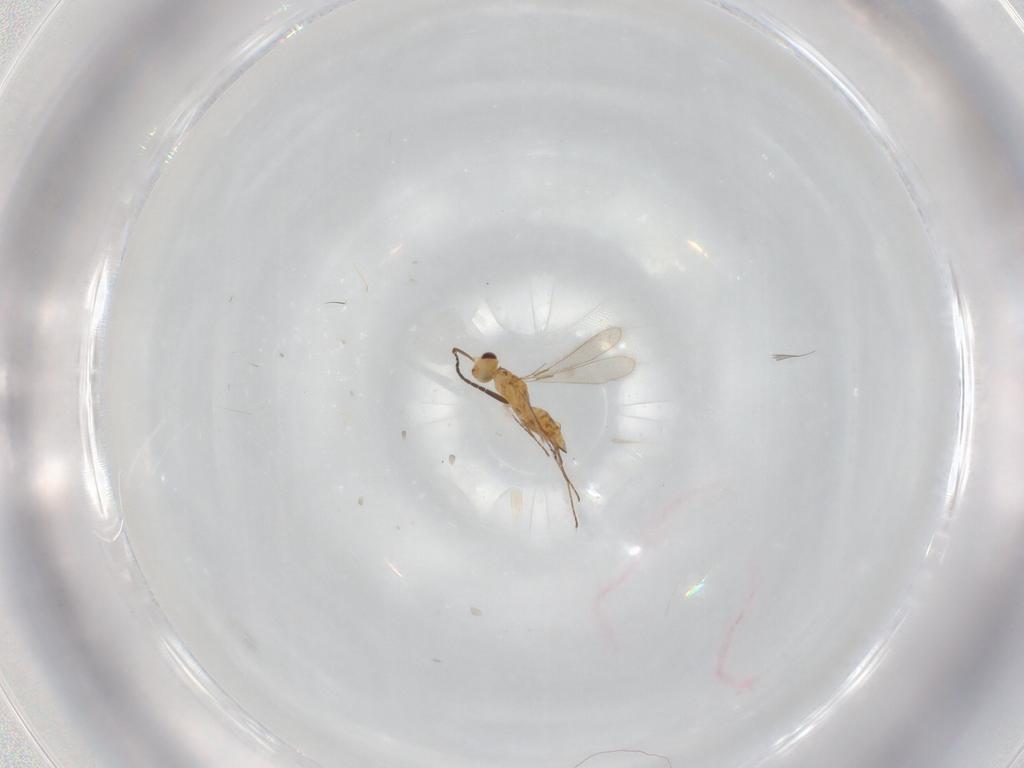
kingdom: Animalia
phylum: Arthropoda
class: Insecta
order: Hymenoptera
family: Mymaridae
